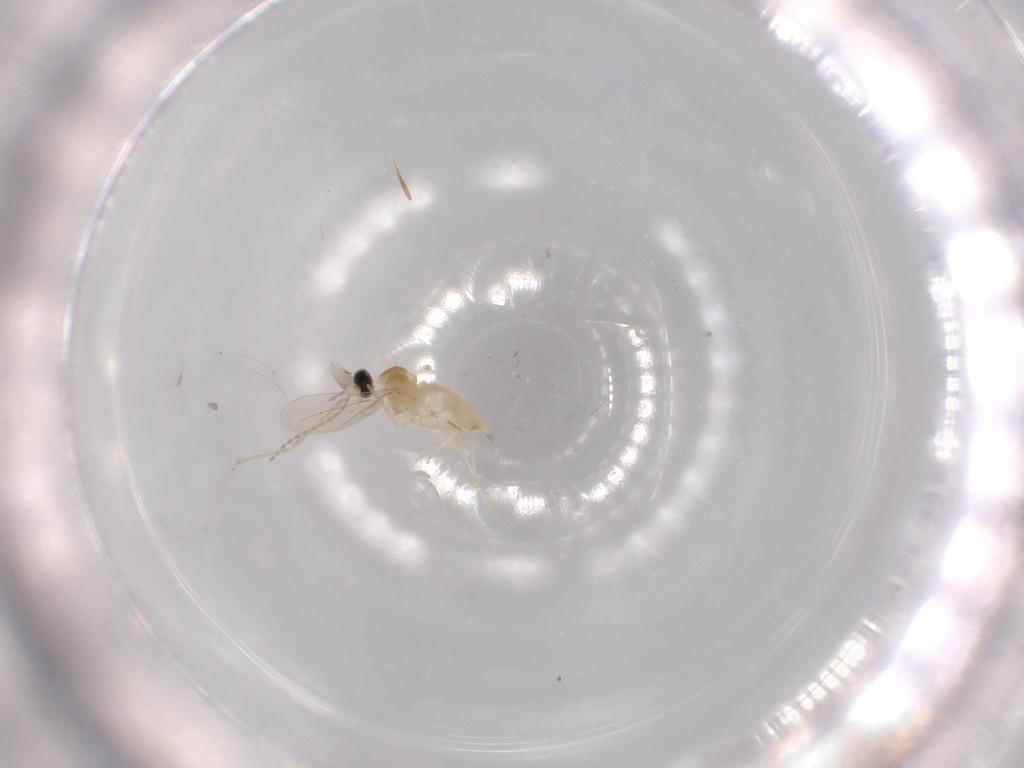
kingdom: Animalia
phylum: Arthropoda
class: Insecta
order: Diptera
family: Cecidomyiidae
